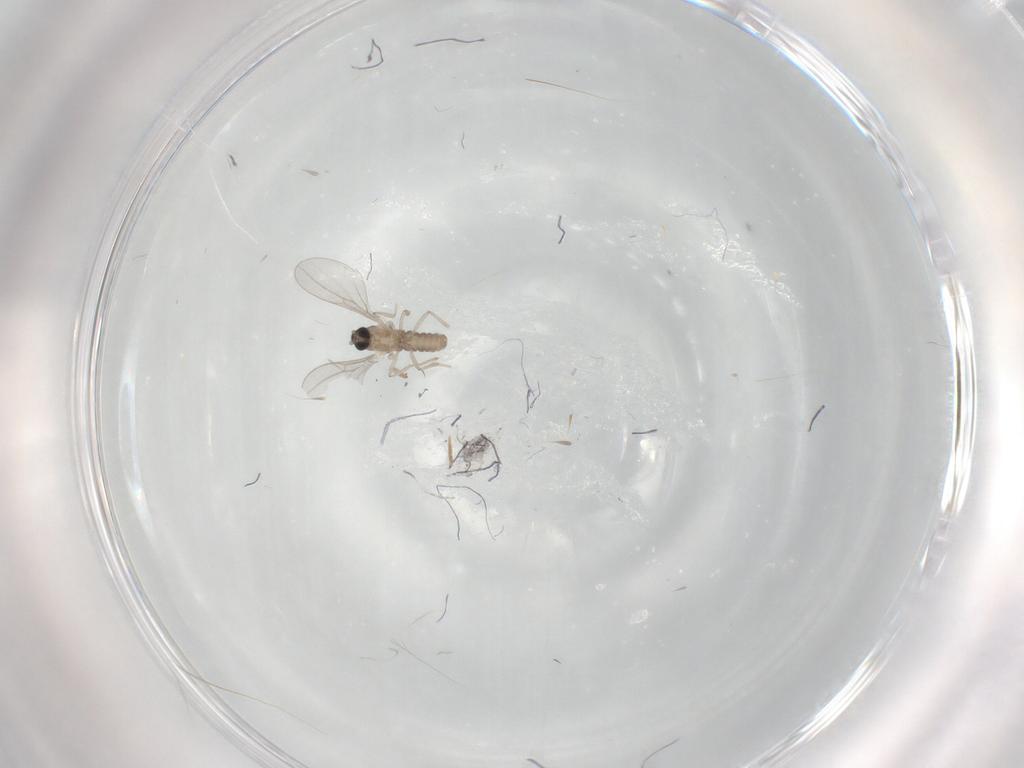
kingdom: Animalia
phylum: Arthropoda
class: Insecta
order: Diptera
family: Cecidomyiidae
